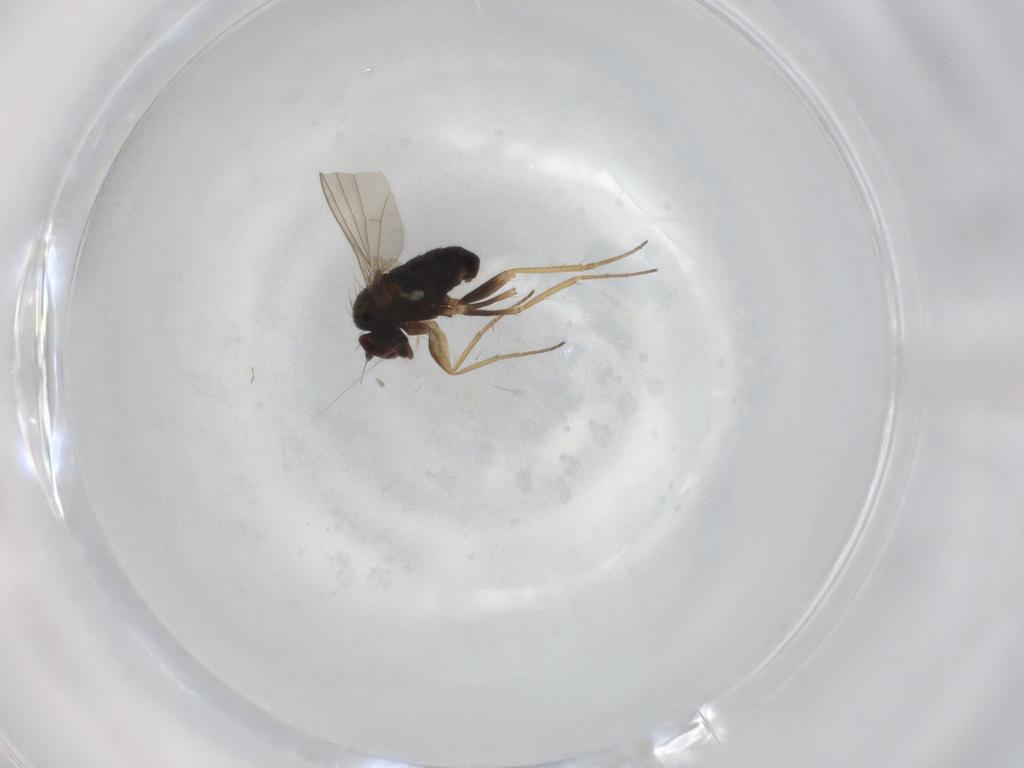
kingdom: Animalia
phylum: Arthropoda
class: Insecta
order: Diptera
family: Dolichopodidae
